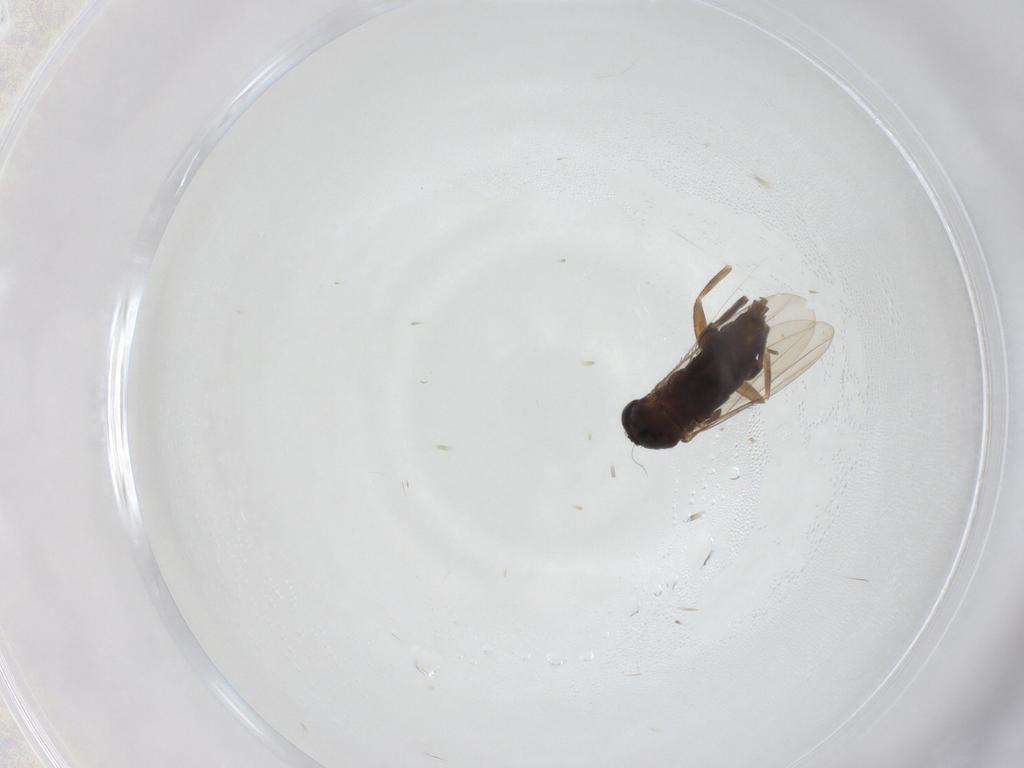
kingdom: Animalia
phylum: Arthropoda
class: Insecta
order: Diptera
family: Phoridae
